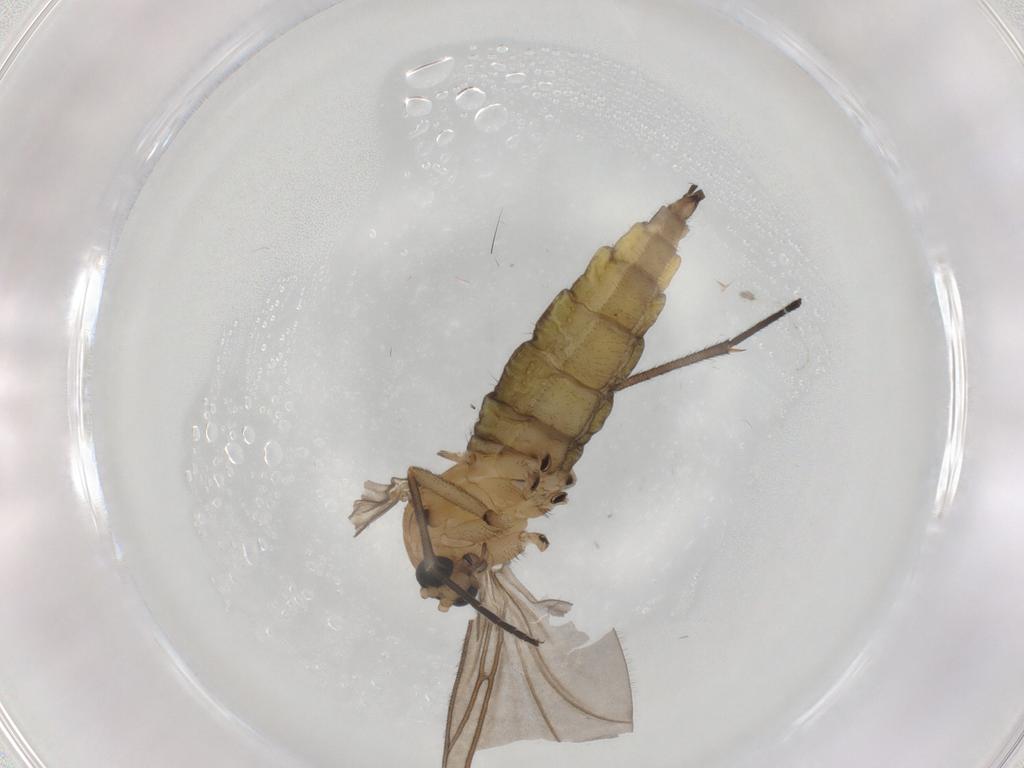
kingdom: Animalia
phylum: Arthropoda
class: Insecta
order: Diptera
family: Sciaridae
